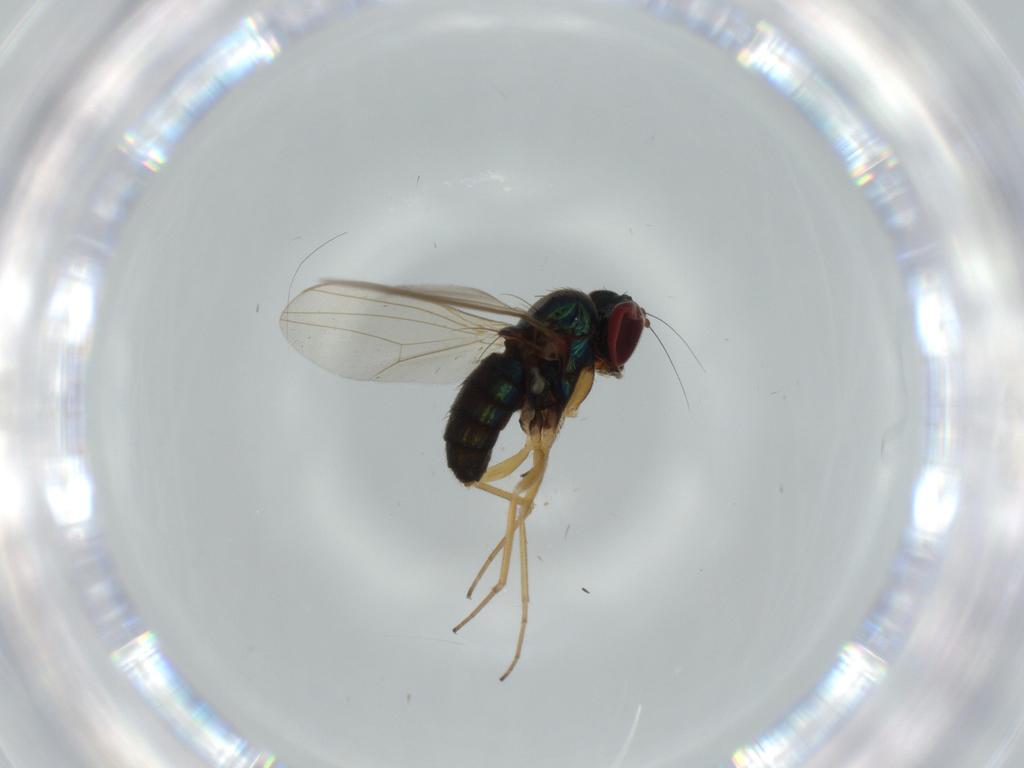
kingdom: Animalia
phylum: Arthropoda
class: Insecta
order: Diptera
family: Dolichopodidae
